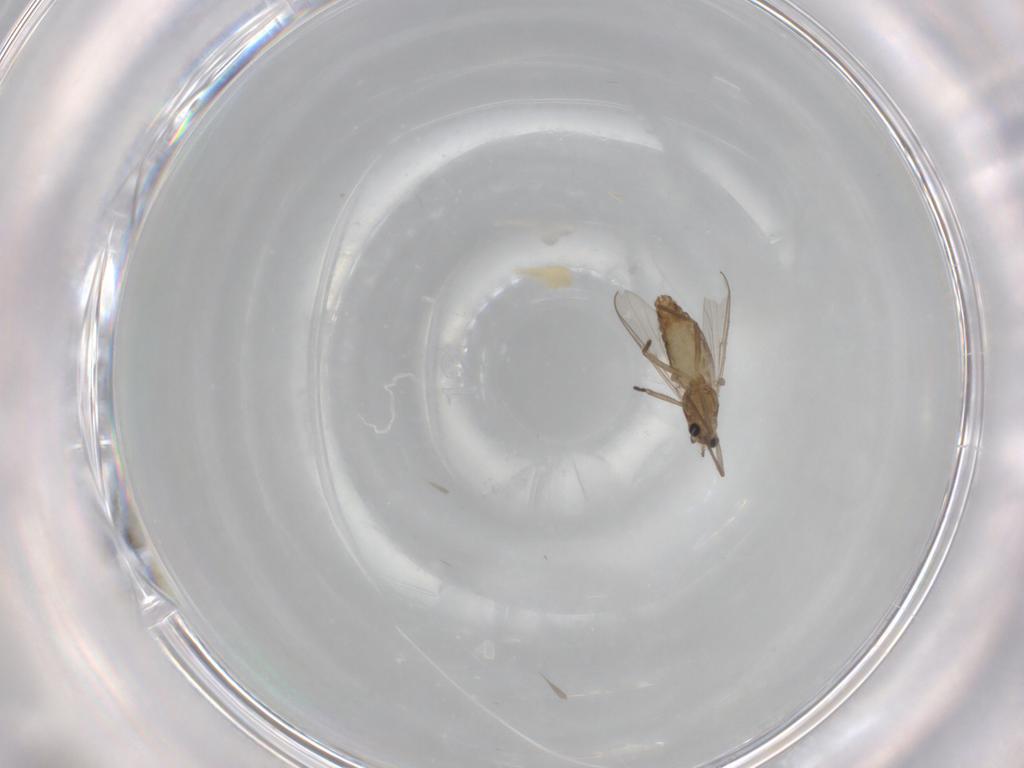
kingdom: Animalia
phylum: Arthropoda
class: Insecta
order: Diptera
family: Chironomidae
